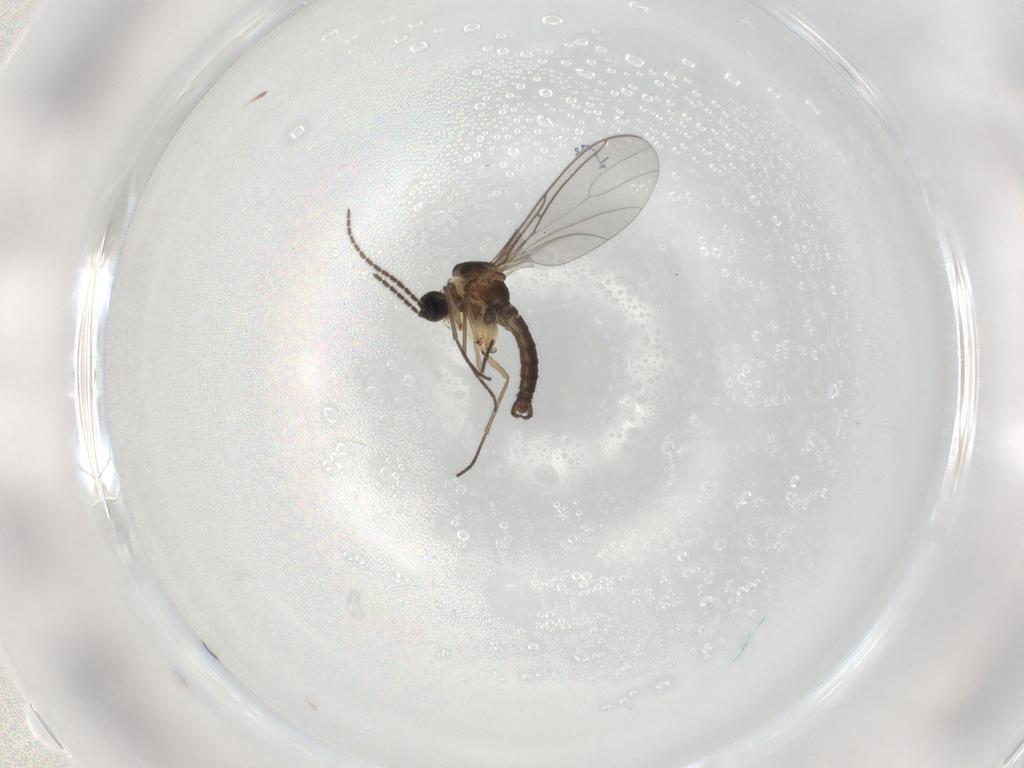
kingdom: Animalia
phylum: Arthropoda
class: Insecta
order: Diptera
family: Sciaridae
